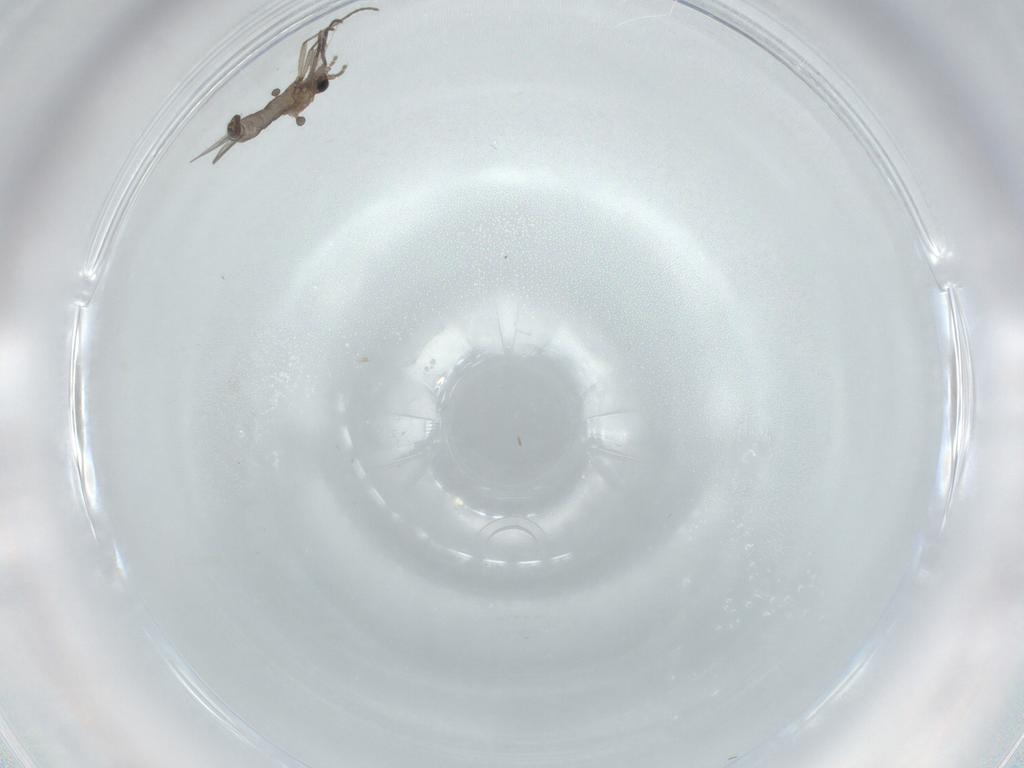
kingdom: Animalia
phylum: Arthropoda
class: Insecta
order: Diptera
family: Sciaridae
